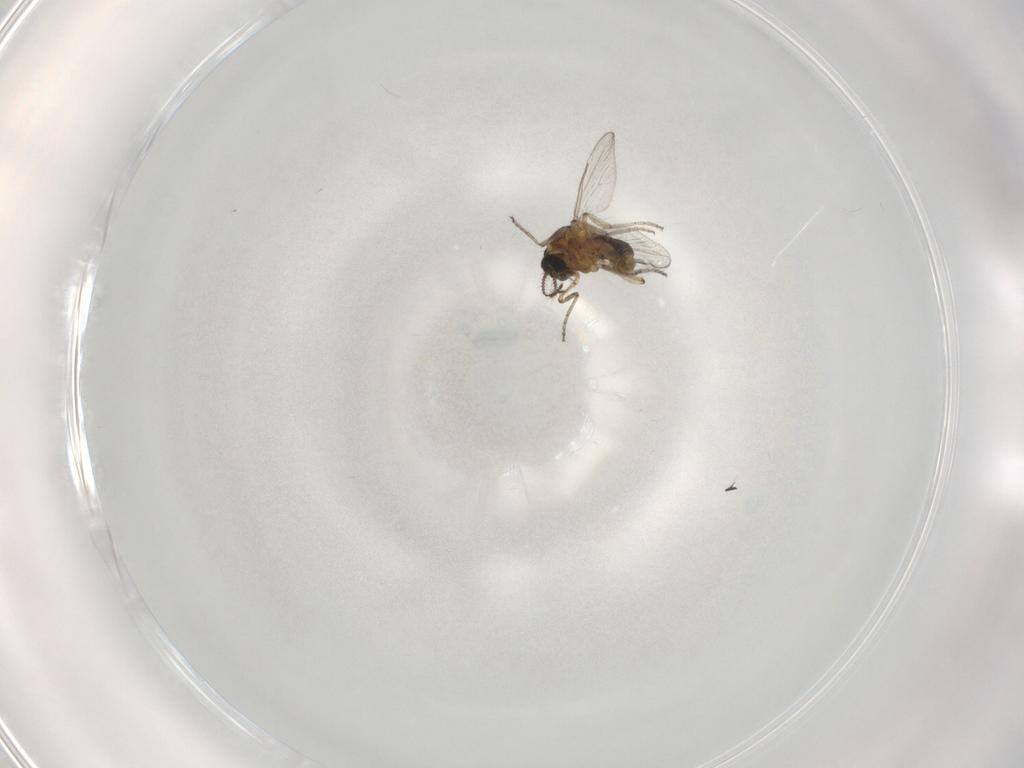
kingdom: Animalia
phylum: Arthropoda
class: Insecta
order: Diptera
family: Ceratopogonidae
